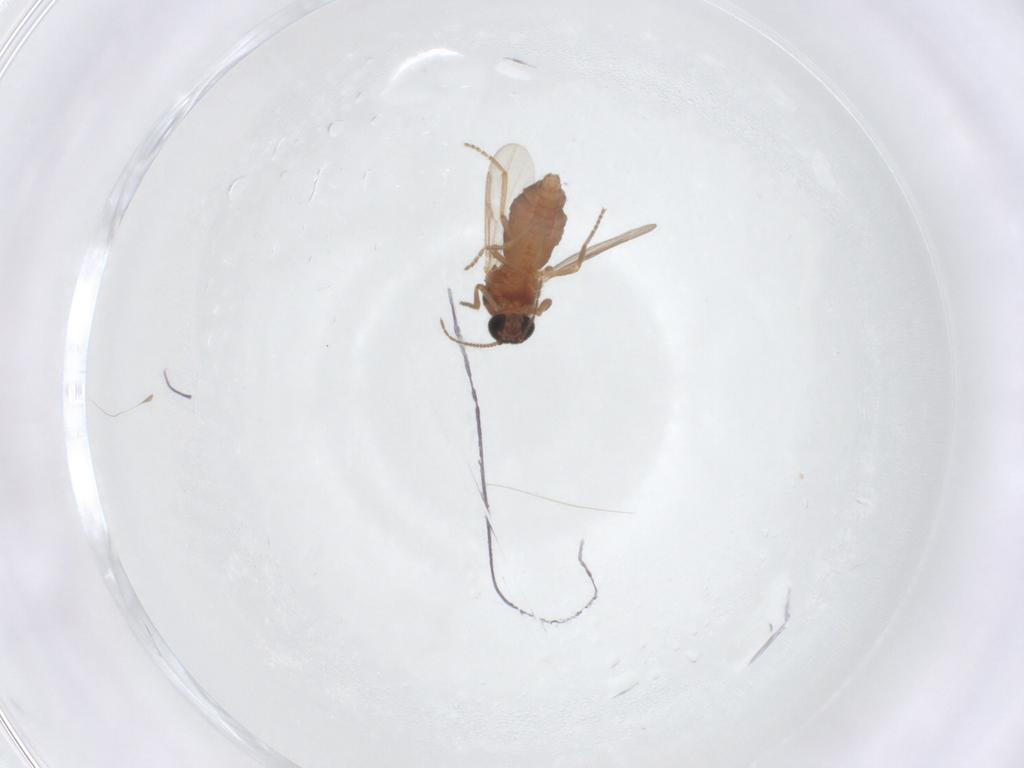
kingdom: Animalia
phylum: Arthropoda
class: Insecta
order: Diptera
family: Ceratopogonidae
